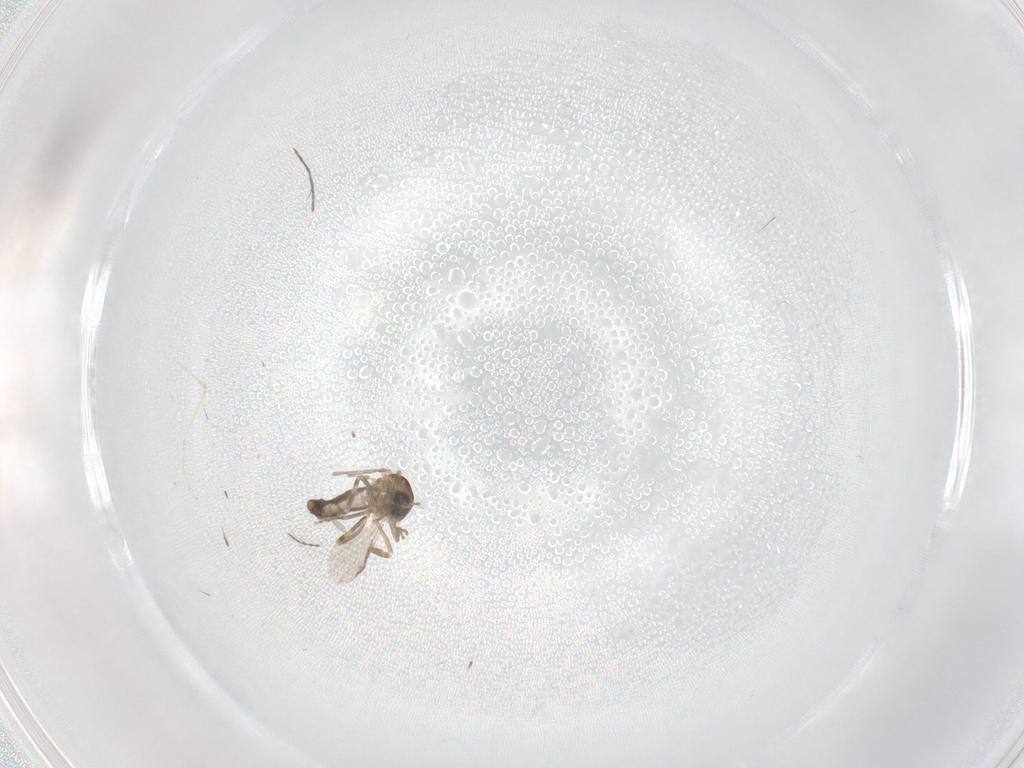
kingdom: Animalia
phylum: Arthropoda
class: Insecta
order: Diptera
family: Ceratopogonidae
